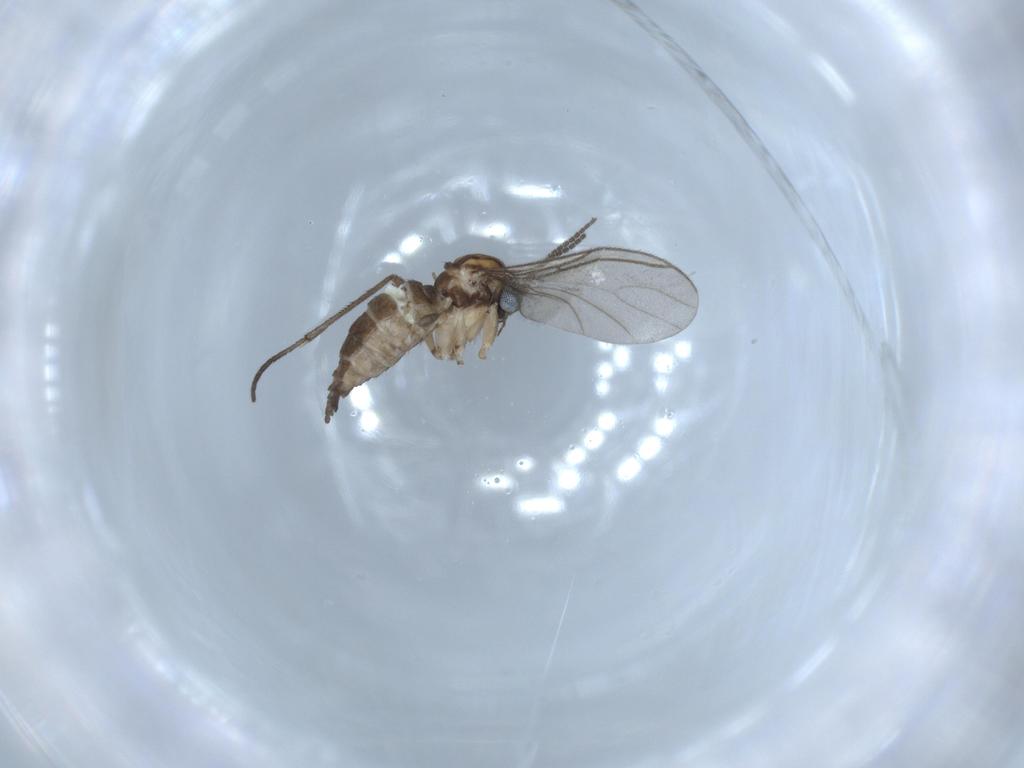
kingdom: Animalia
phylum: Arthropoda
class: Insecta
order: Diptera
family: Sciaridae
